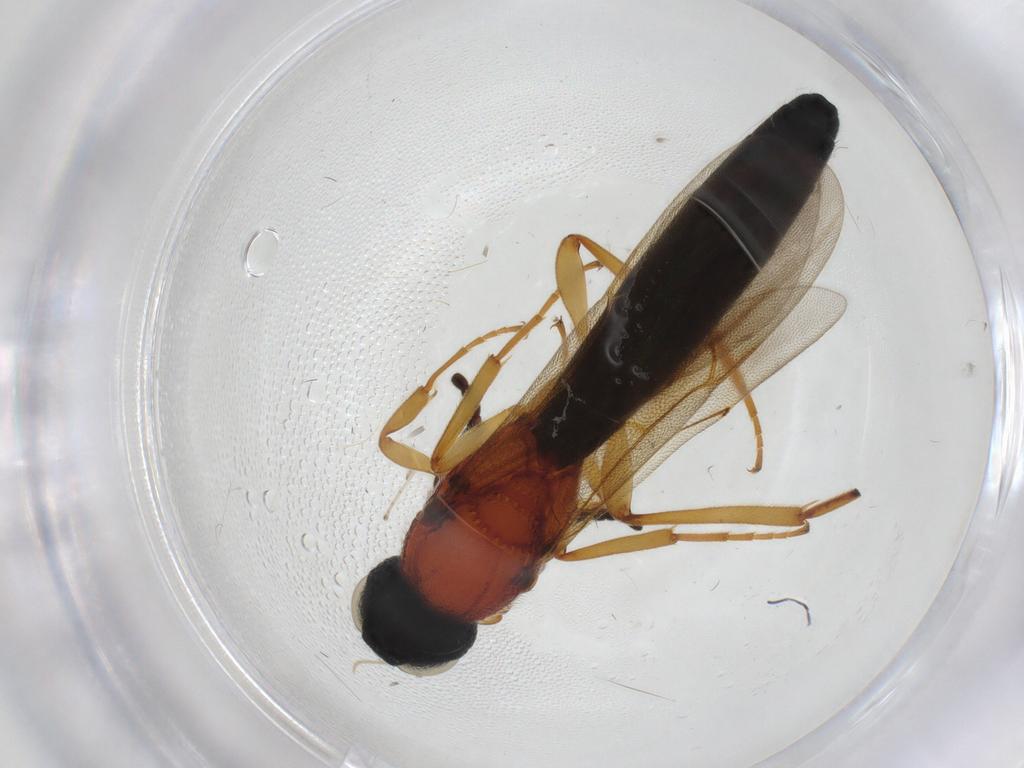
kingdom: Animalia
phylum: Arthropoda
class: Insecta
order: Hymenoptera
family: Scelionidae
